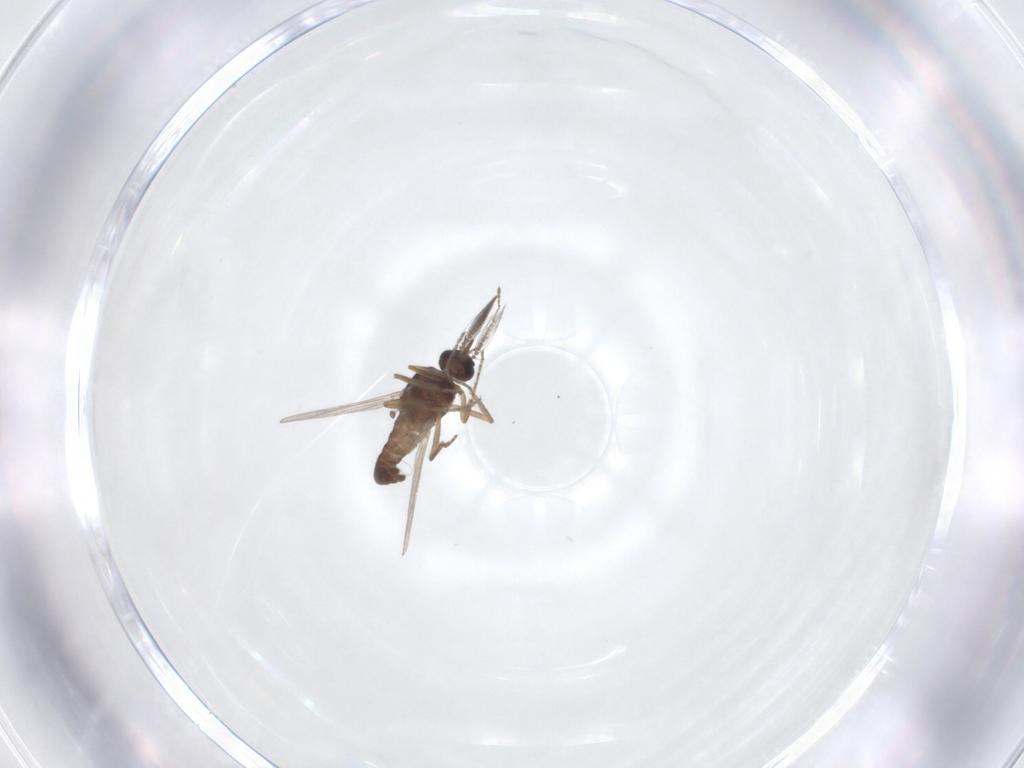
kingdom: Animalia
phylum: Arthropoda
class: Insecta
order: Diptera
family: Ceratopogonidae
